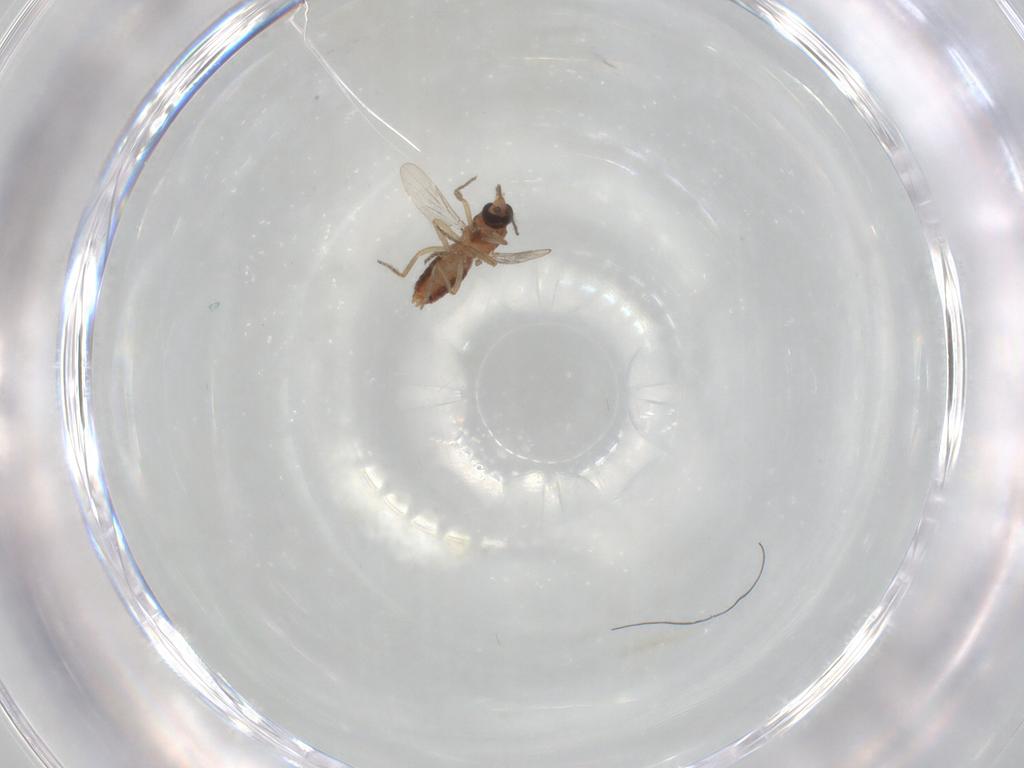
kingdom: Animalia
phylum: Arthropoda
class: Insecta
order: Diptera
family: Ceratopogonidae
